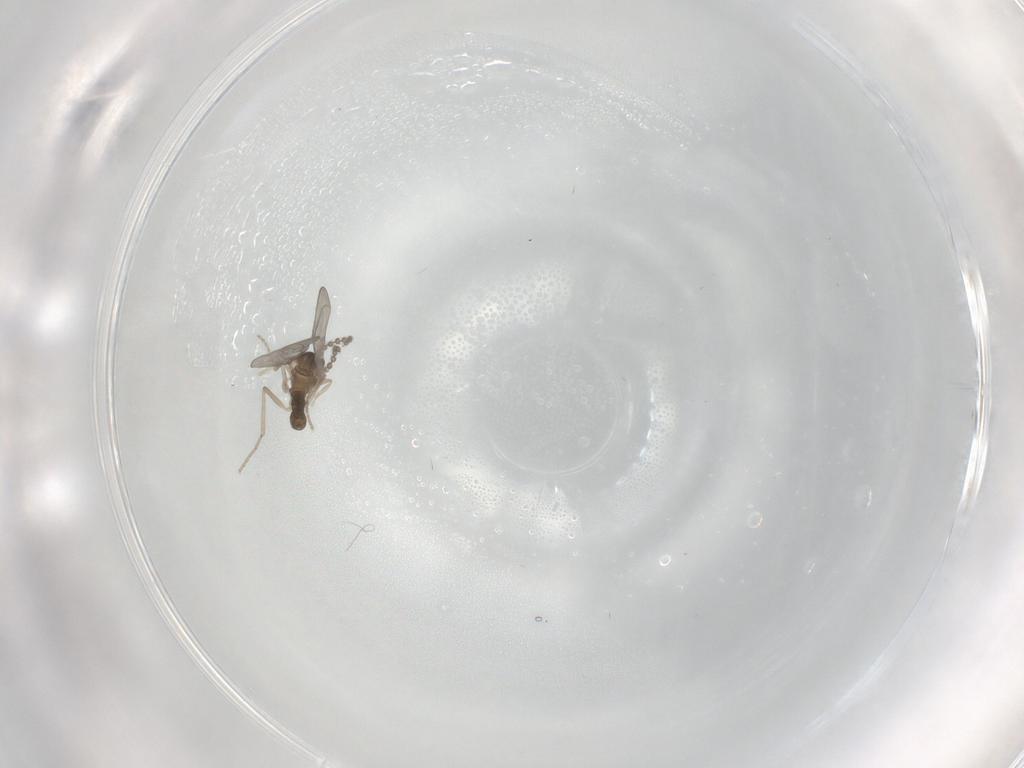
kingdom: Animalia
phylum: Arthropoda
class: Insecta
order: Diptera
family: Cecidomyiidae
